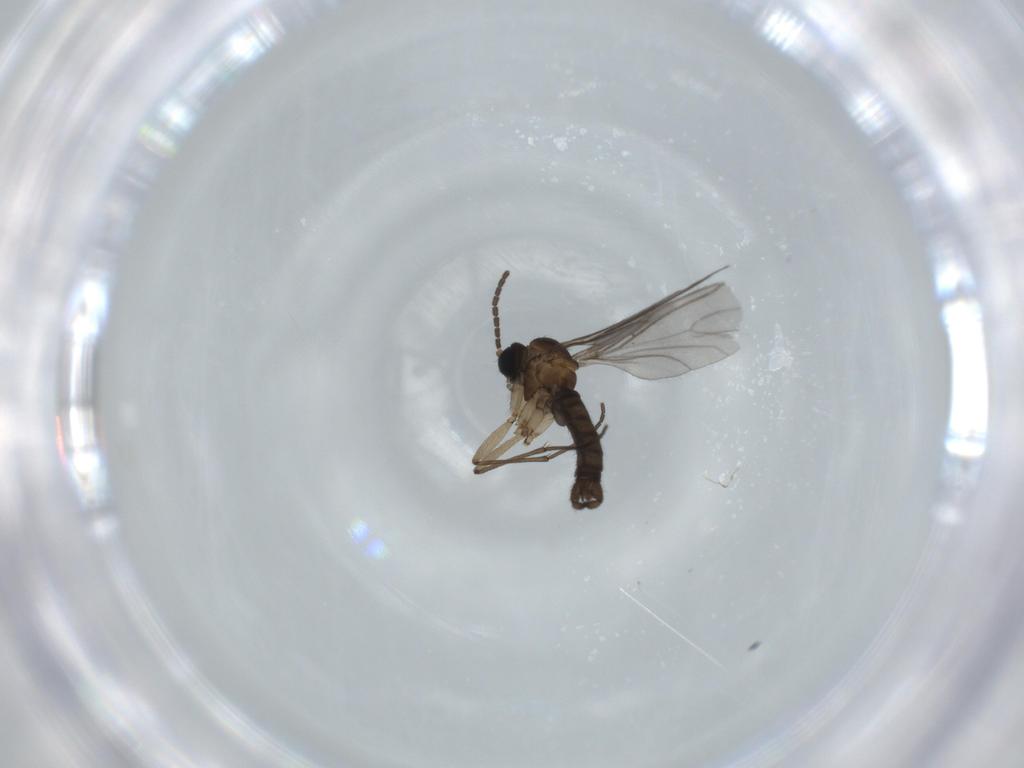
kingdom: Animalia
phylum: Arthropoda
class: Insecta
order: Diptera
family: Sciaridae
